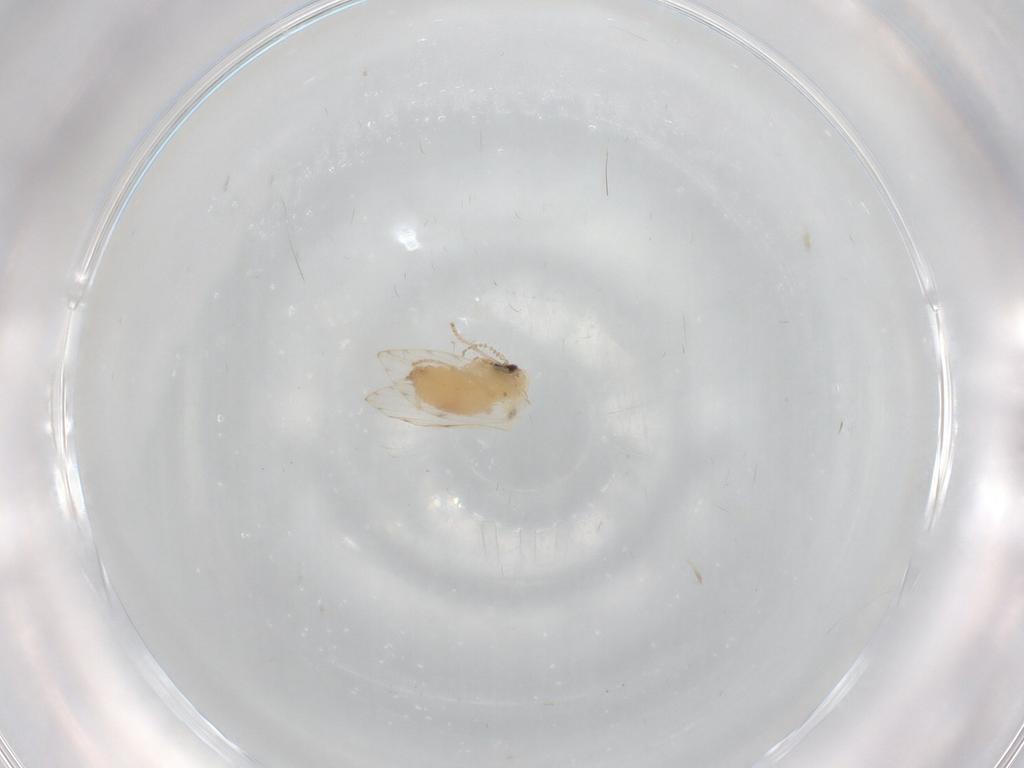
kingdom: Animalia
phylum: Arthropoda
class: Insecta
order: Diptera
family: Psychodidae
